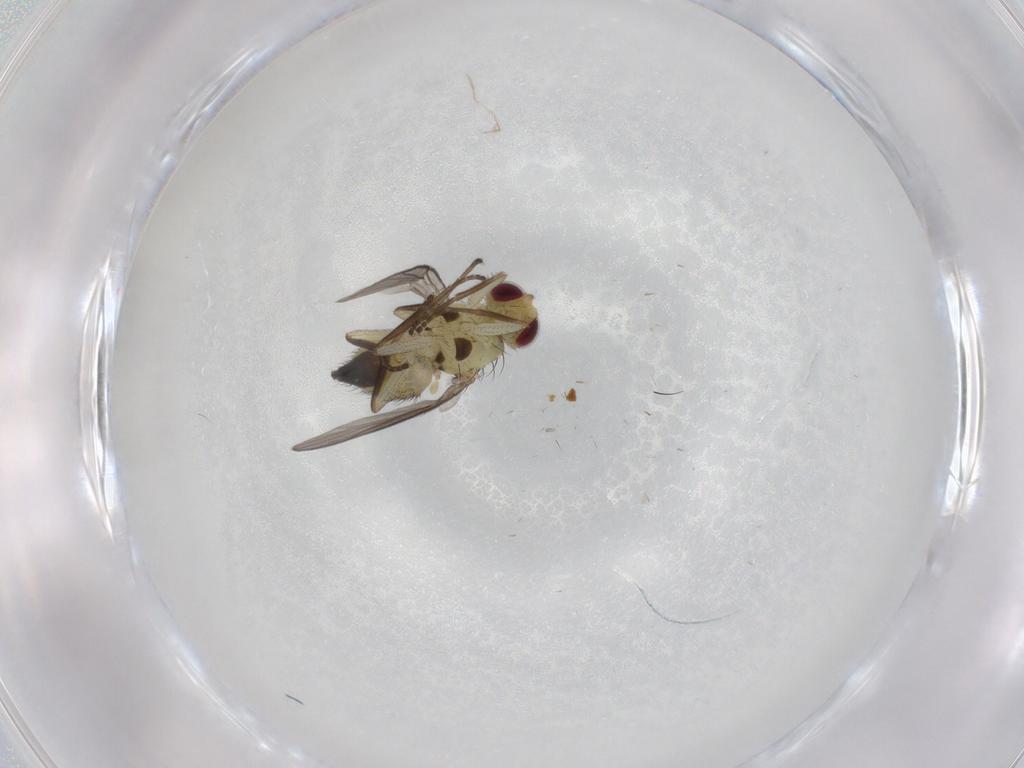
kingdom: Animalia
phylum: Arthropoda
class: Insecta
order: Diptera
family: Agromyzidae
